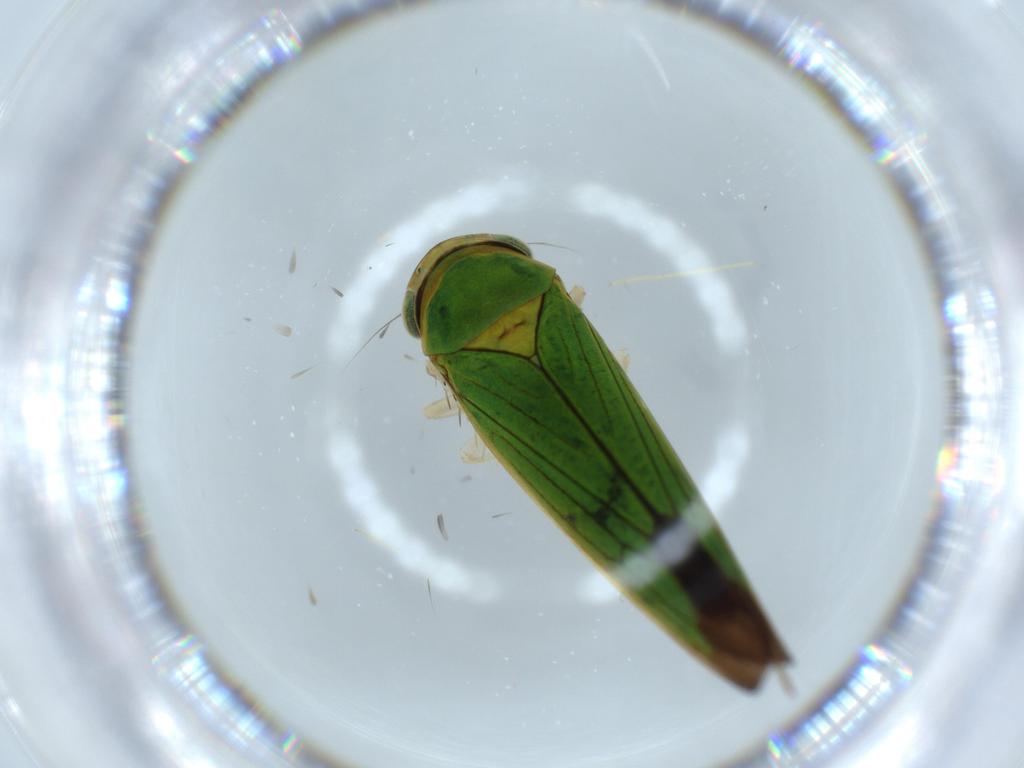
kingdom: Animalia
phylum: Arthropoda
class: Insecta
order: Hemiptera
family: Cicadellidae
